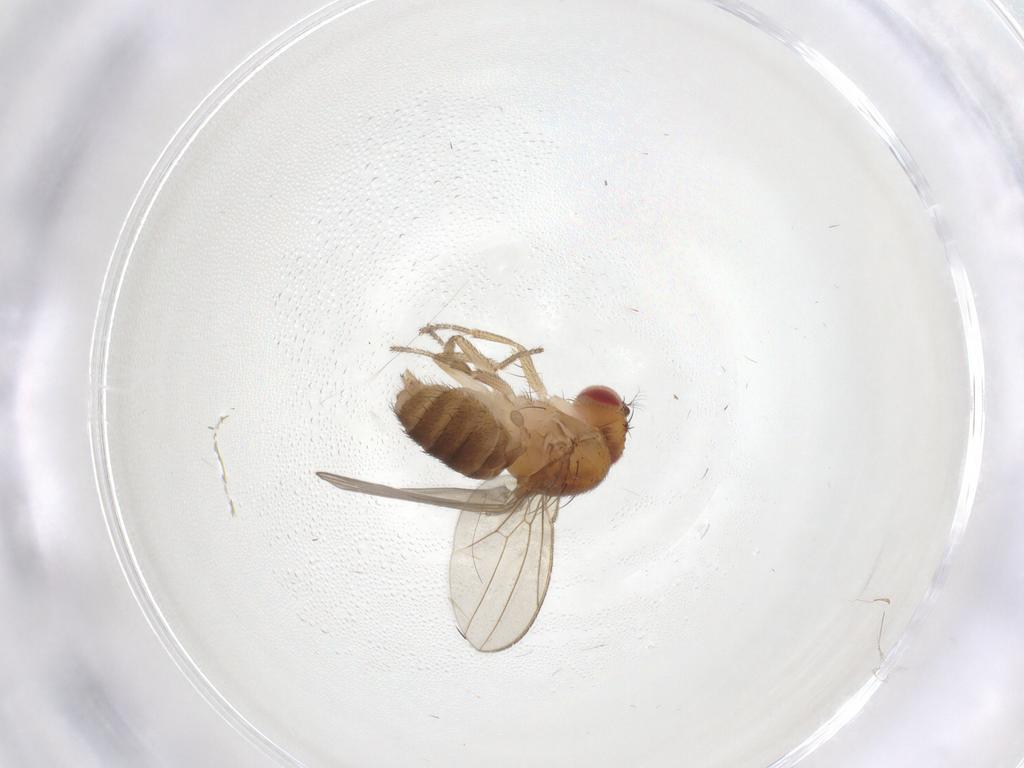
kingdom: Animalia
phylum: Arthropoda
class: Insecta
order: Diptera
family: Drosophilidae
